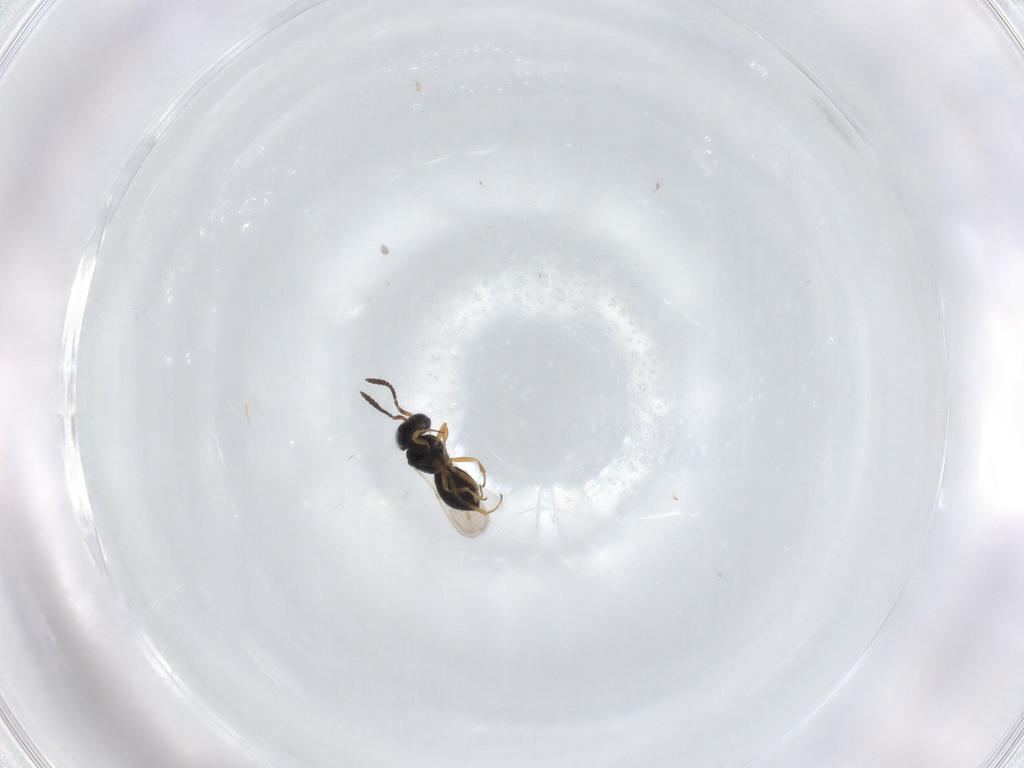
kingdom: Animalia
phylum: Arthropoda
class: Insecta
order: Hymenoptera
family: Scelionidae
